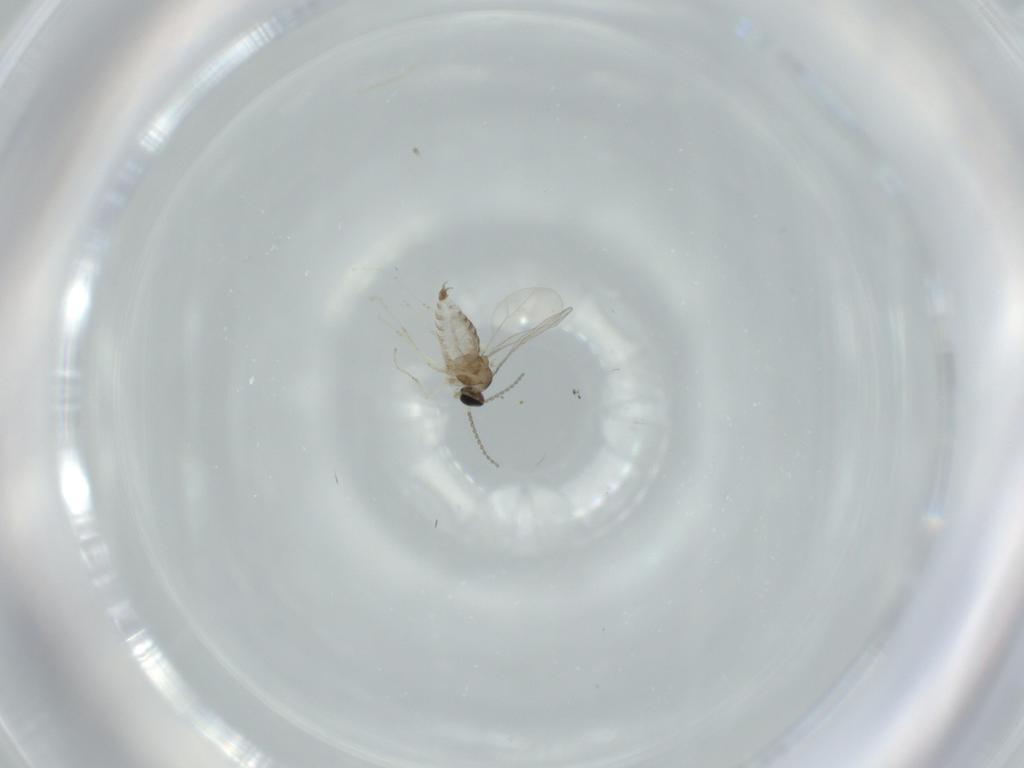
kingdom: Animalia
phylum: Arthropoda
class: Insecta
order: Diptera
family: Cecidomyiidae
